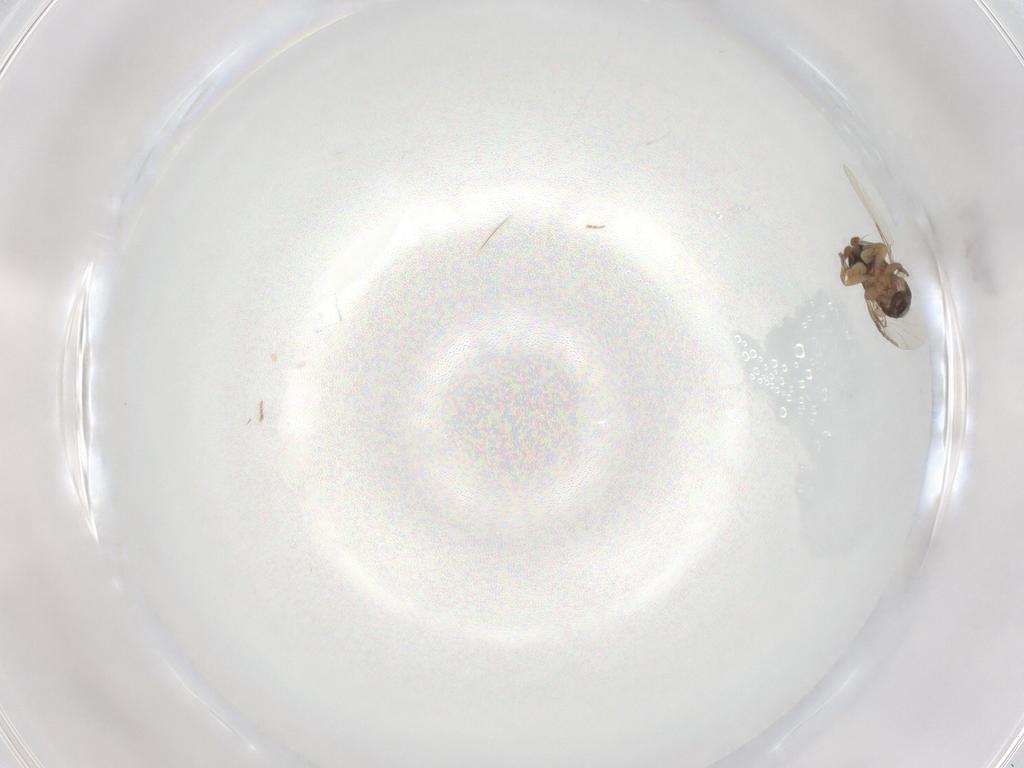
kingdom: Animalia
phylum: Arthropoda
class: Insecta
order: Diptera
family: Phoridae
